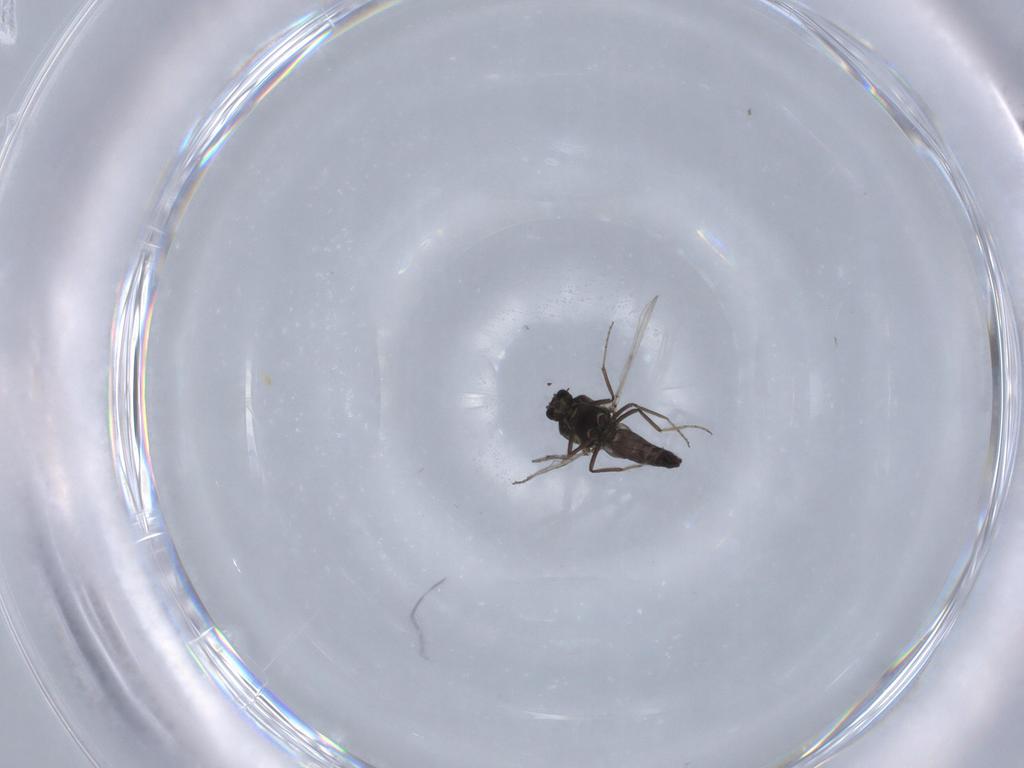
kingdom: Animalia
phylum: Arthropoda
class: Insecta
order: Diptera
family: Ceratopogonidae
